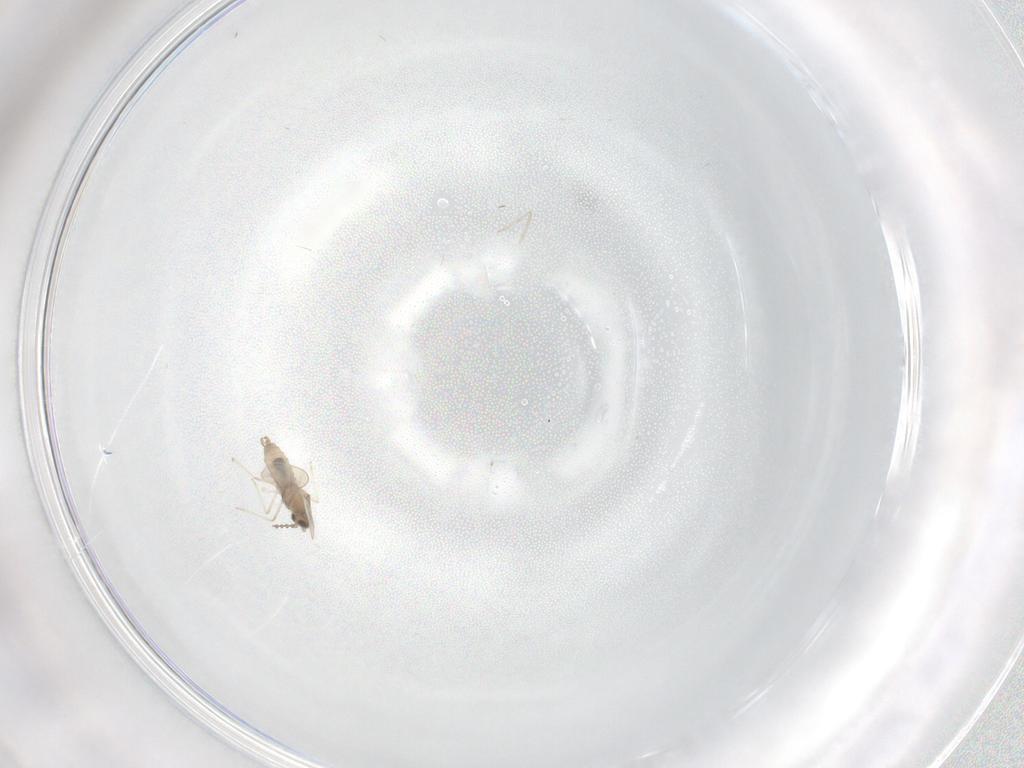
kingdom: Animalia
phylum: Arthropoda
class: Insecta
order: Diptera
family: Cecidomyiidae
